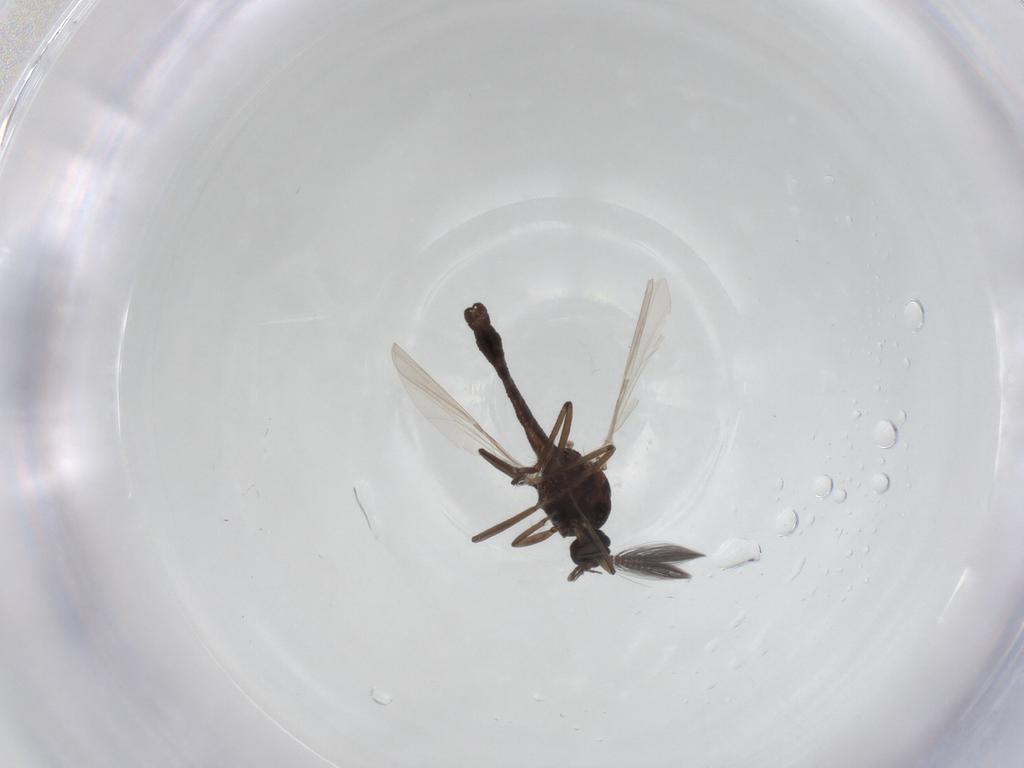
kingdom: Animalia
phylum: Arthropoda
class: Insecta
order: Diptera
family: Ceratopogonidae
